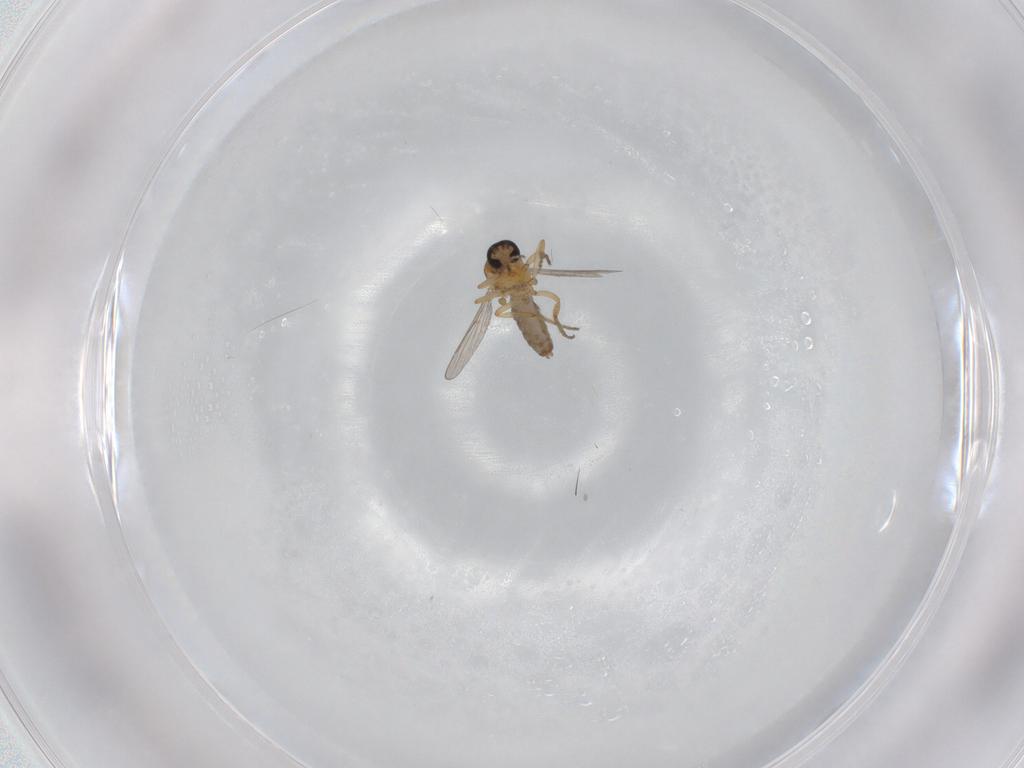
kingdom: Animalia
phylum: Arthropoda
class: Insecta
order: Diptera
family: Ceratopogonidae
